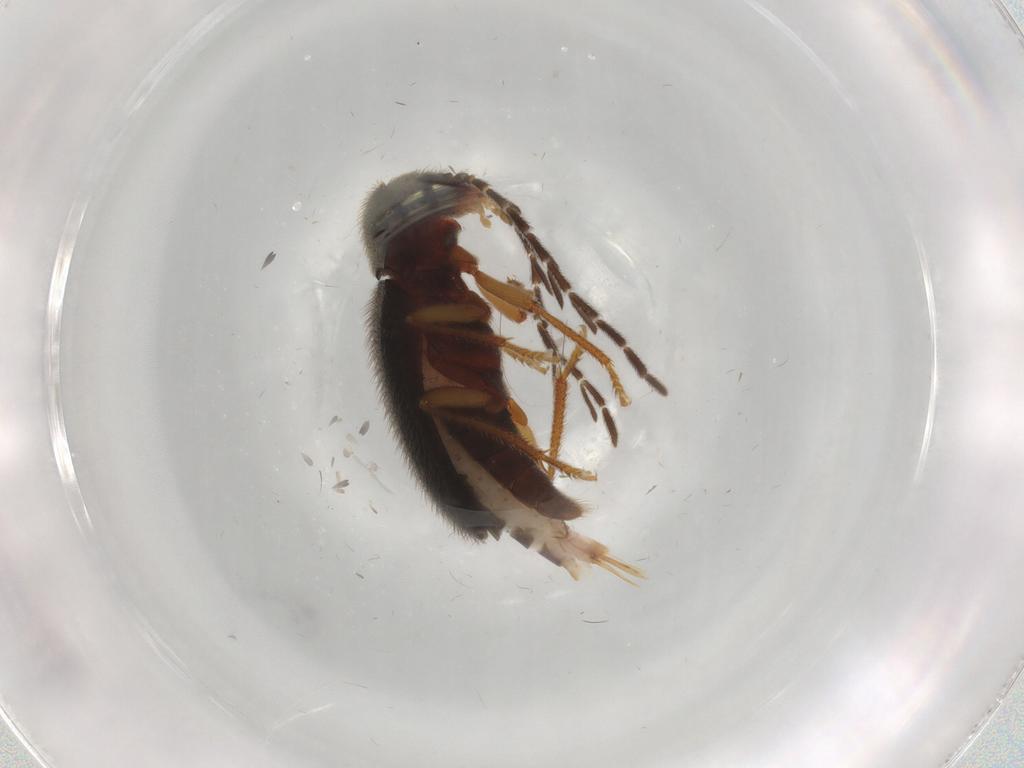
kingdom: Animalia
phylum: Arthropoda
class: Insecta
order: Coleoptera
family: Ptilodactylidae
